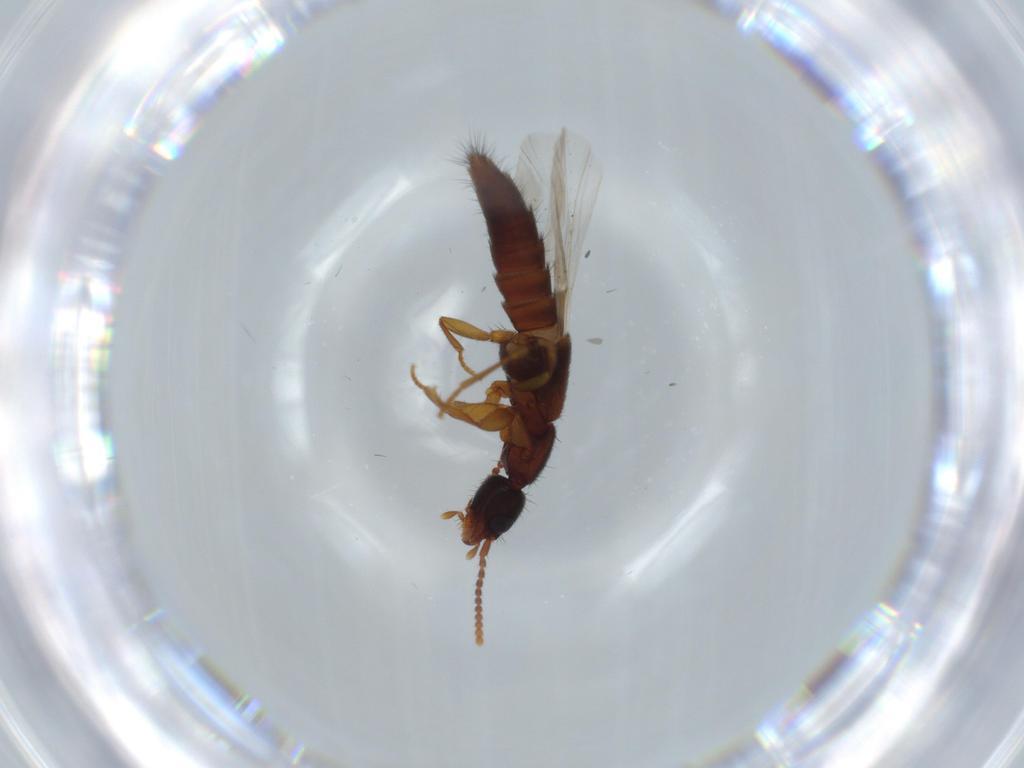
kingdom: Animalia
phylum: Arthropoda
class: Insecta
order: Coleoptera
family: Staphylinidae
